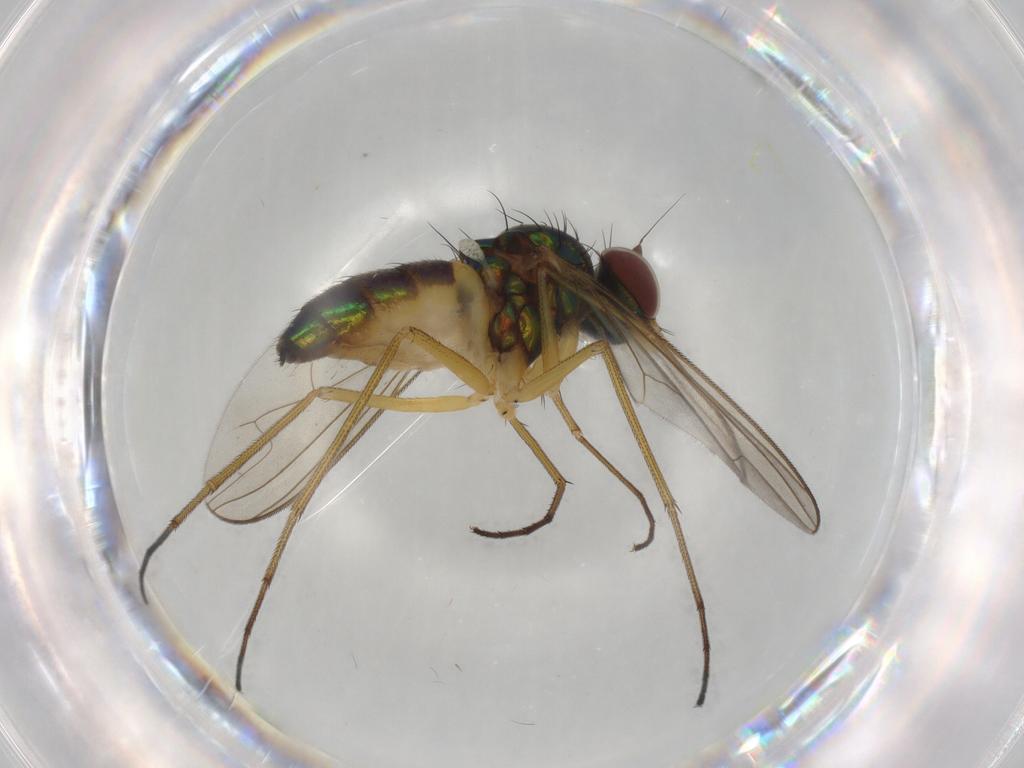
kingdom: Animalia
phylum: Arthropoda
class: Insecta
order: Diptera
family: Dolichopodidae
